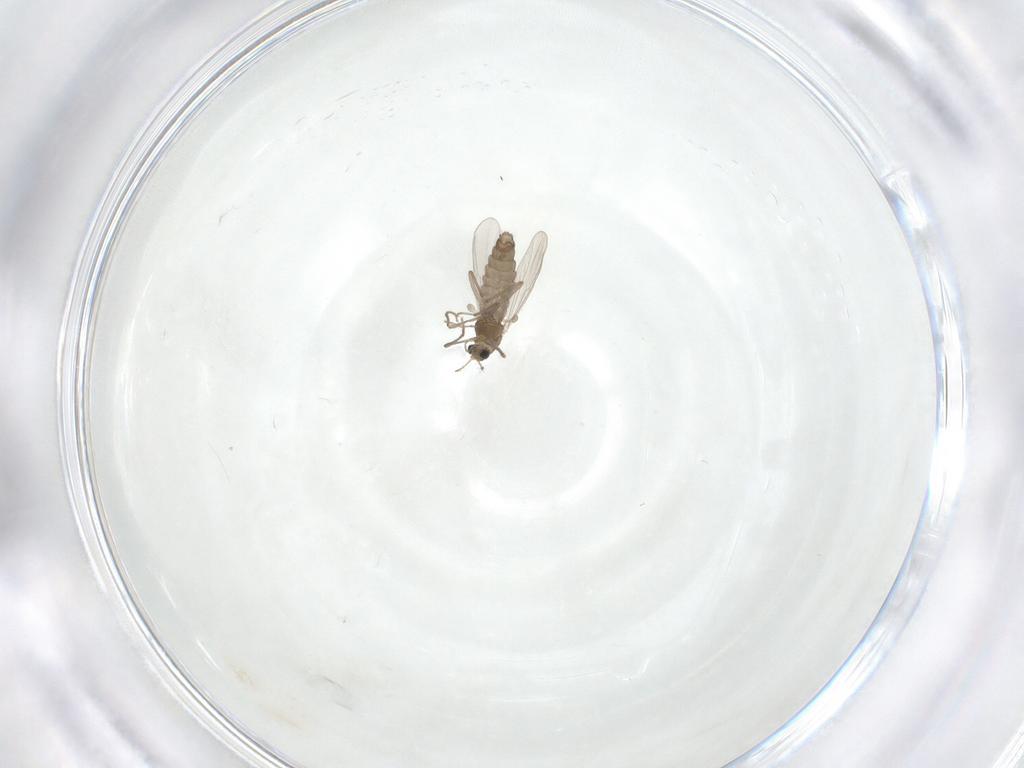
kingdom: Animalia
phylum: Arthropoda
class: Insecta
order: Diptera
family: Chironomidae
